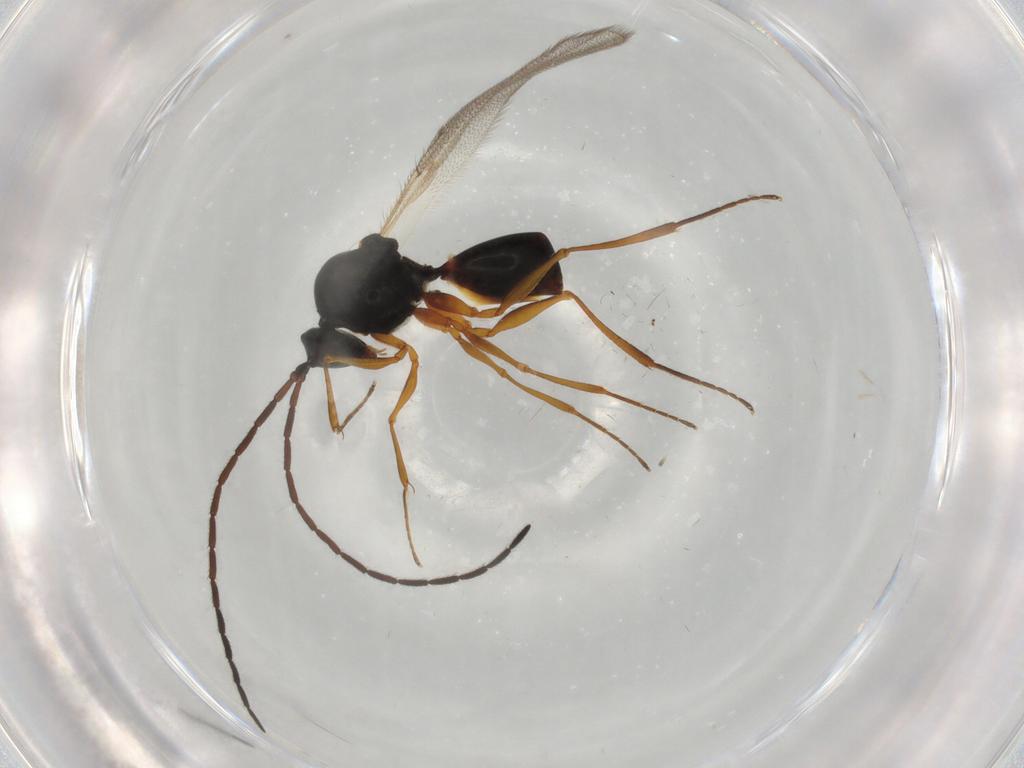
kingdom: Animalia
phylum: Arthropoda
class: Insecta
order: Hymenoptera
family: Figitidae
